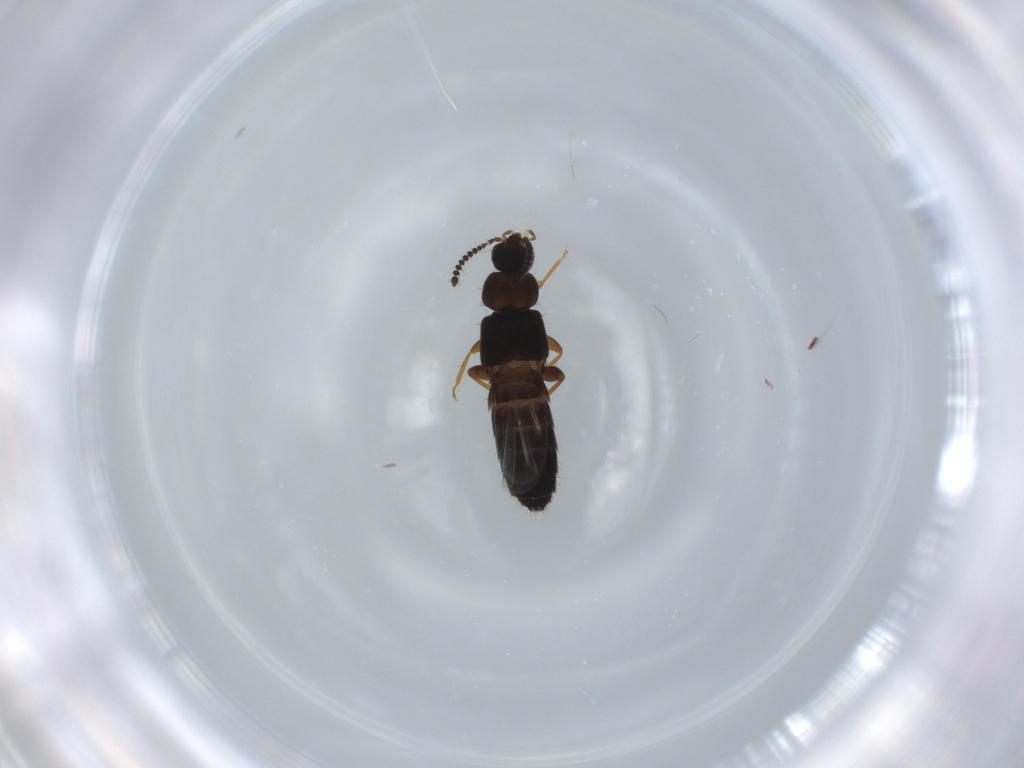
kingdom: Animalia
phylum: Arthropoda
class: Insecta
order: Coleoptera
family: Staphylinidae
